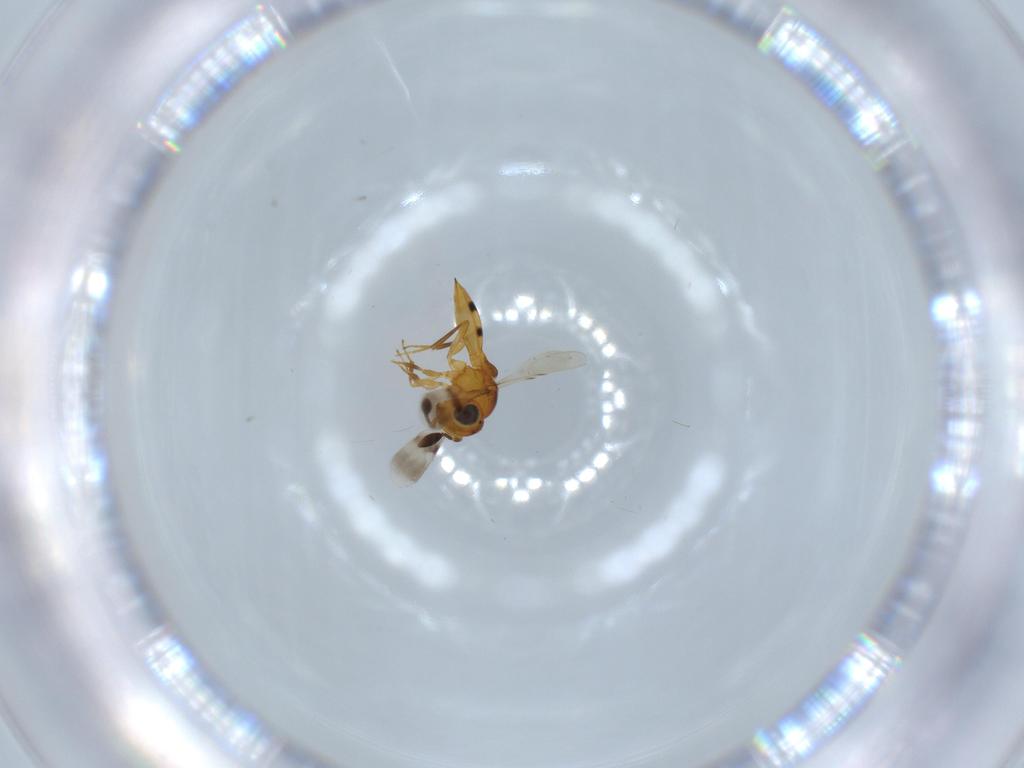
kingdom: Animalia
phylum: Arthropoda
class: Insecta
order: Hymenoptera
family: Scelionidae
